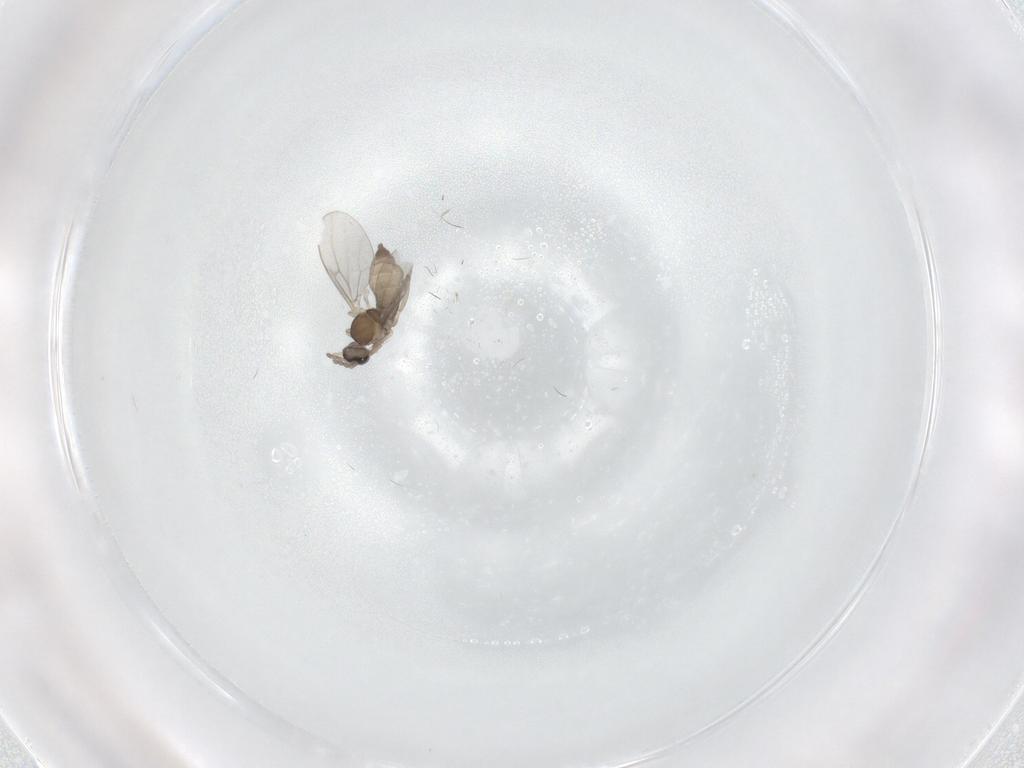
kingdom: Animalia
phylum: Arthropoda
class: Insecta
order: Diptera
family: Cecidomyiidae
